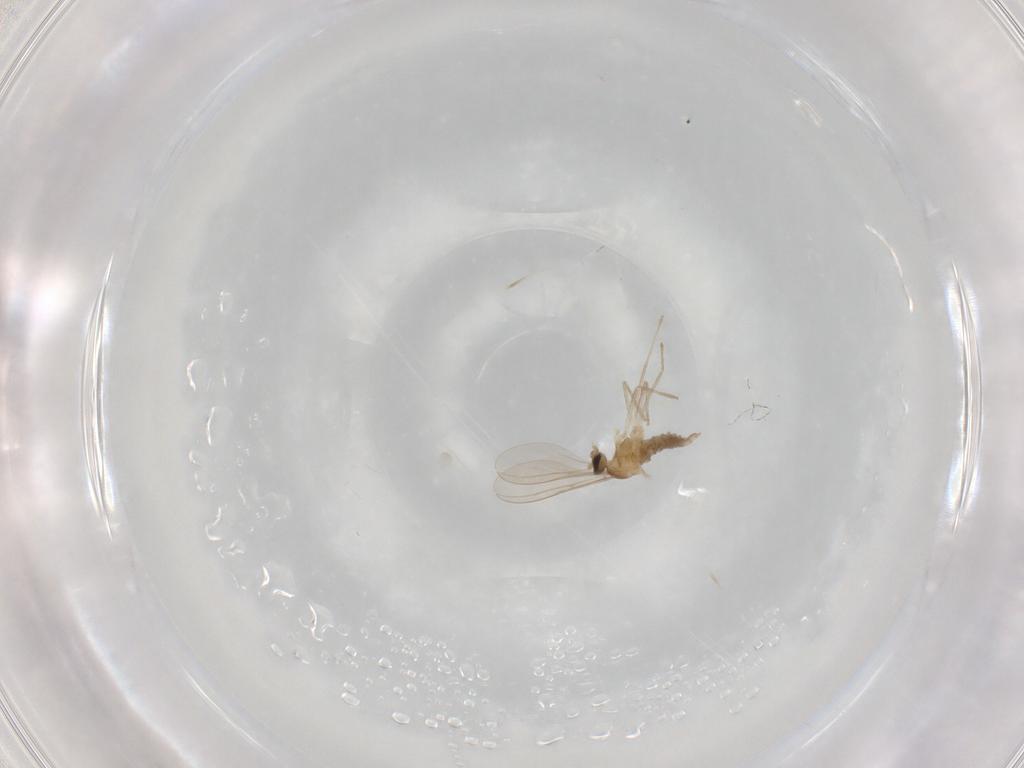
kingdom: Animalia
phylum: Arthropoda
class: Insecta
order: Diptera
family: Cecidomyiidae
